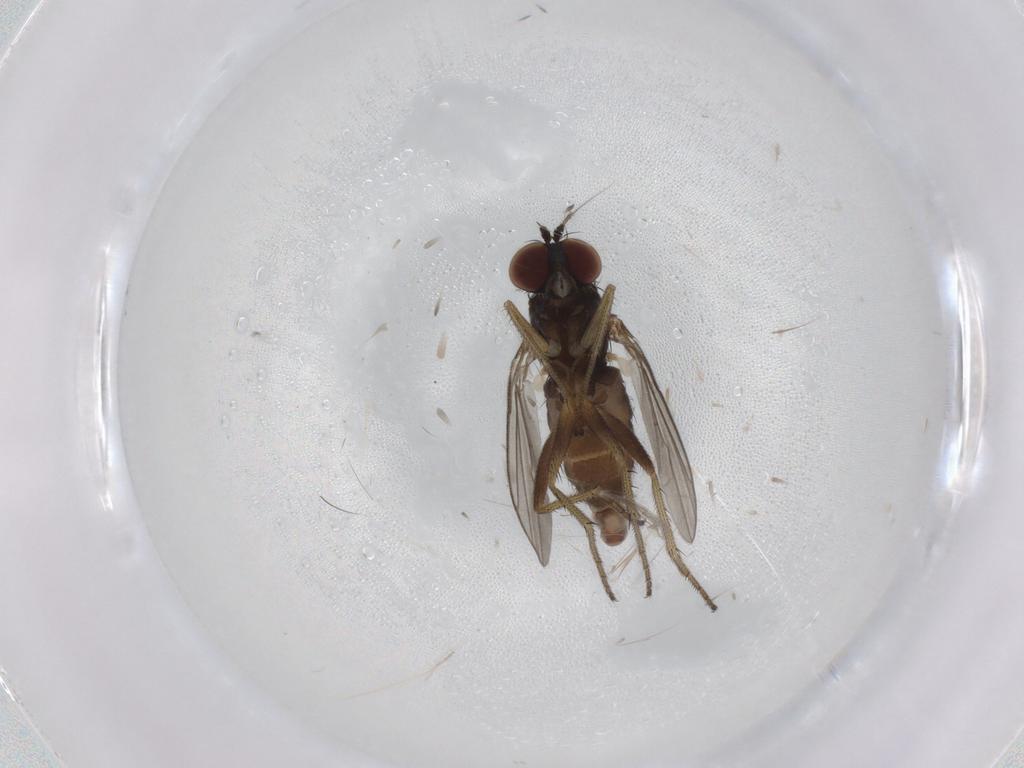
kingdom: Animalia
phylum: Arthropoda
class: Insecta
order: Diptera
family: Dolichopodidae
